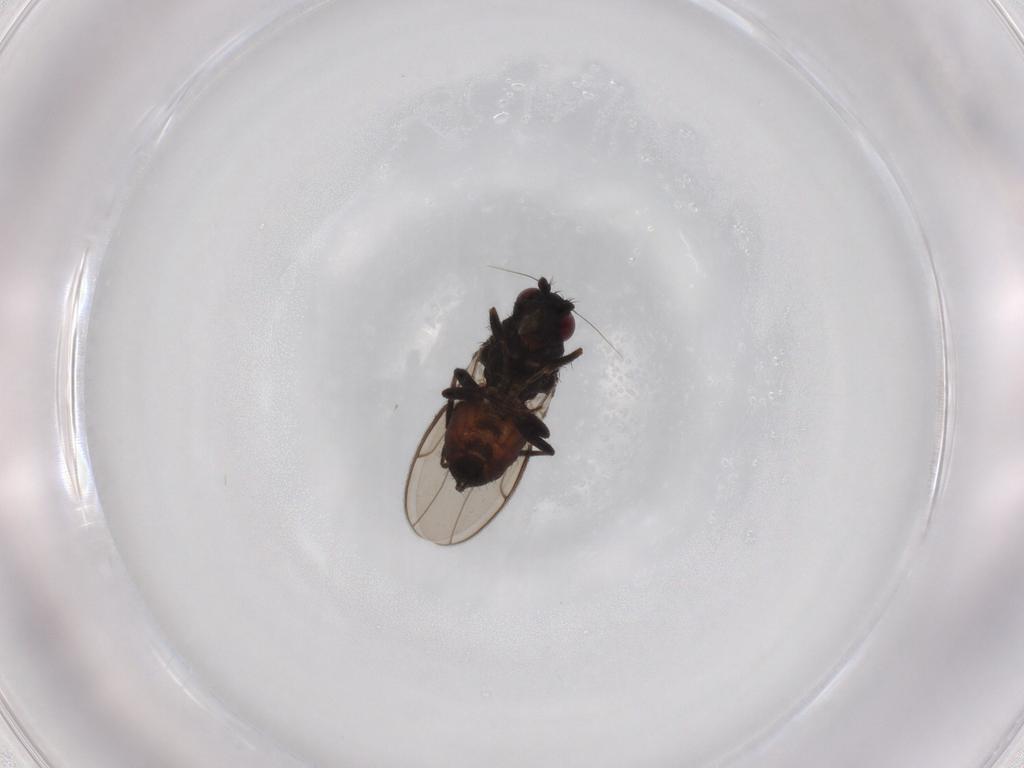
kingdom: Animalia
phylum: Arthropoda
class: Insecta
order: Diptera
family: Sphaeroceridae
